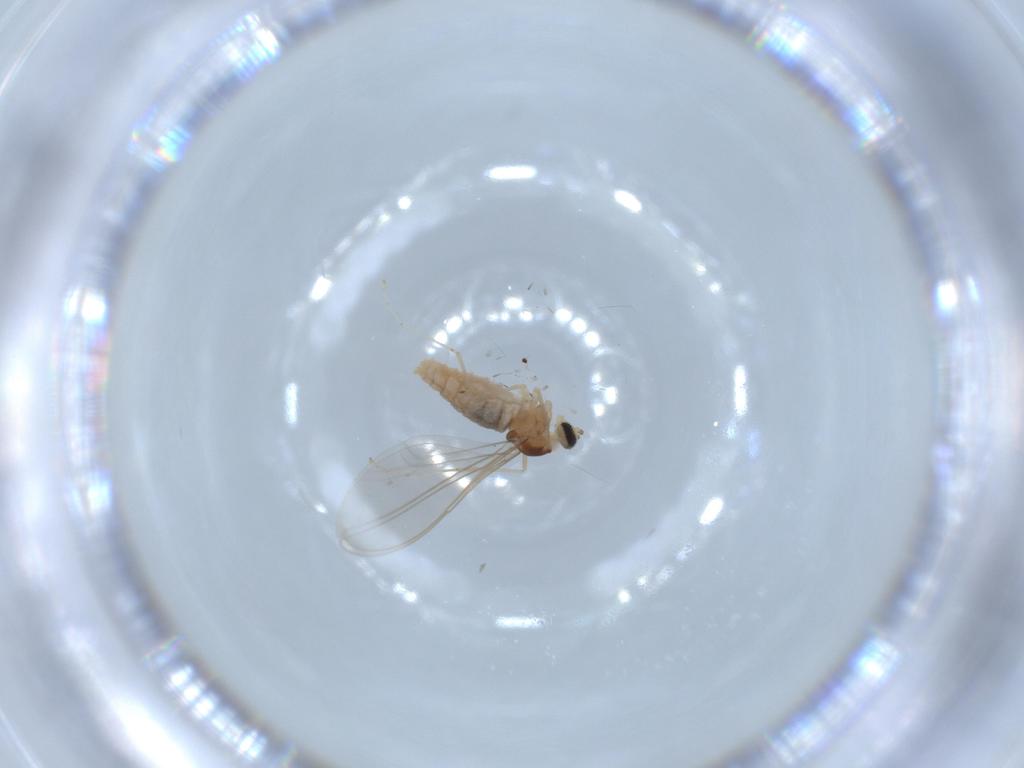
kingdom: Animalia
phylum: Arthropoda
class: Insecta
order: Diptera
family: Cecidomyiidae
